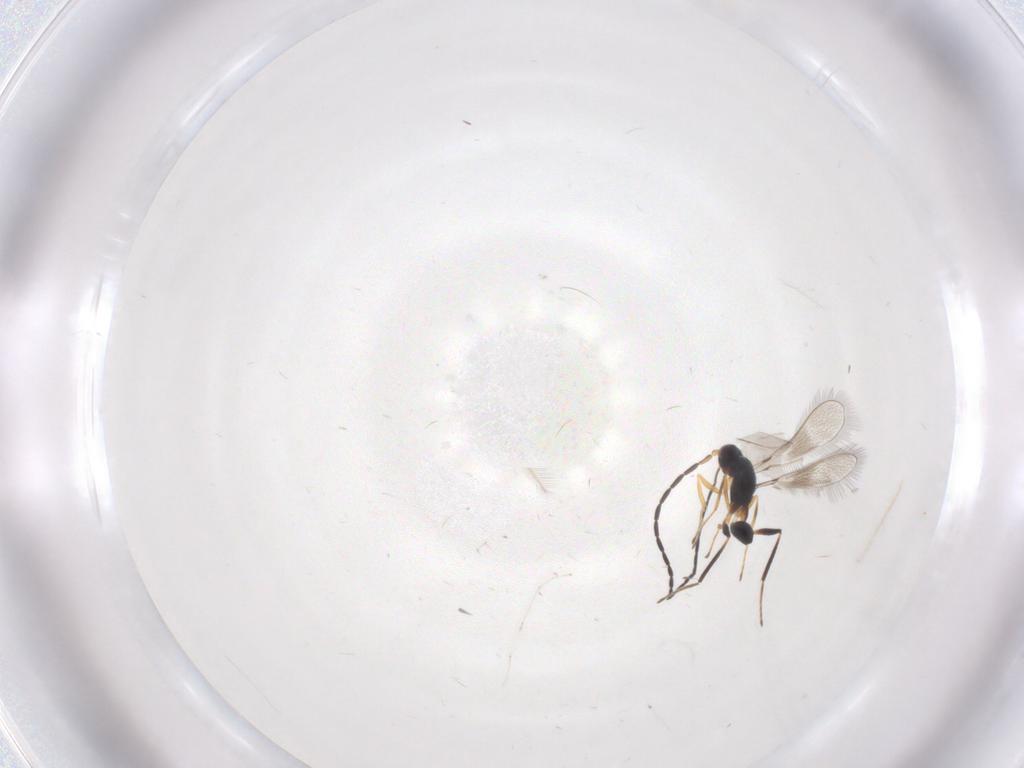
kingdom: Animalia
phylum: Arthropoda
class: Insecta
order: Hymenoptera
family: Mymaridae
